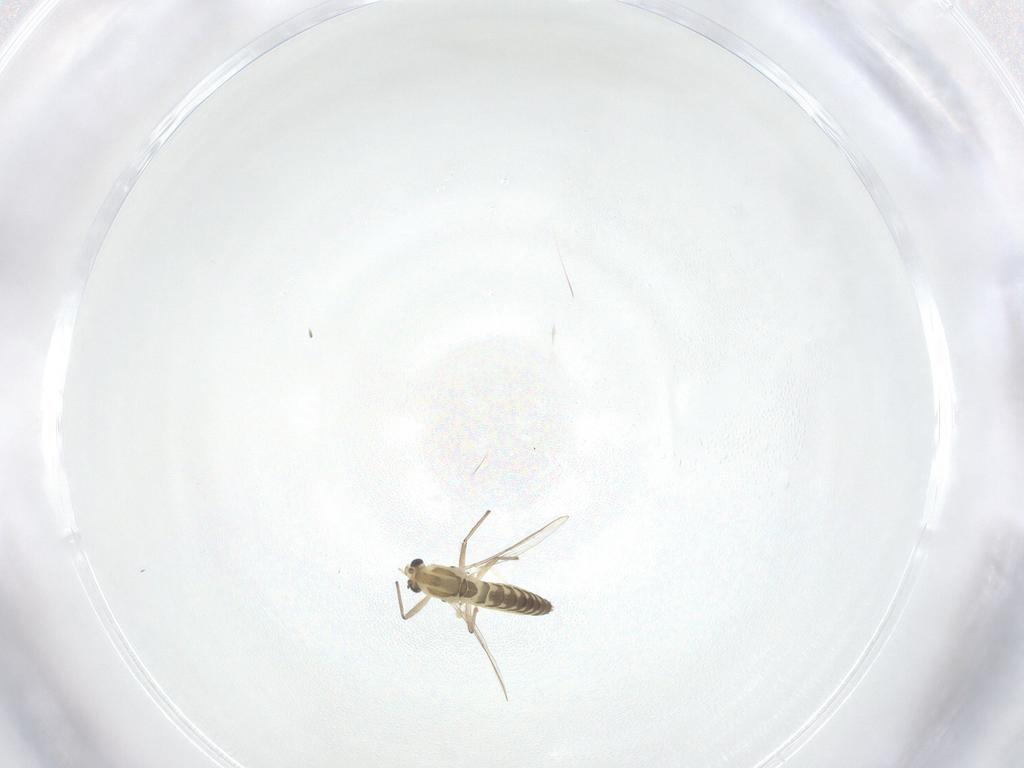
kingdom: Animalia
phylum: Arthropoda
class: Insecta
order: Diptera
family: Chironomidae
